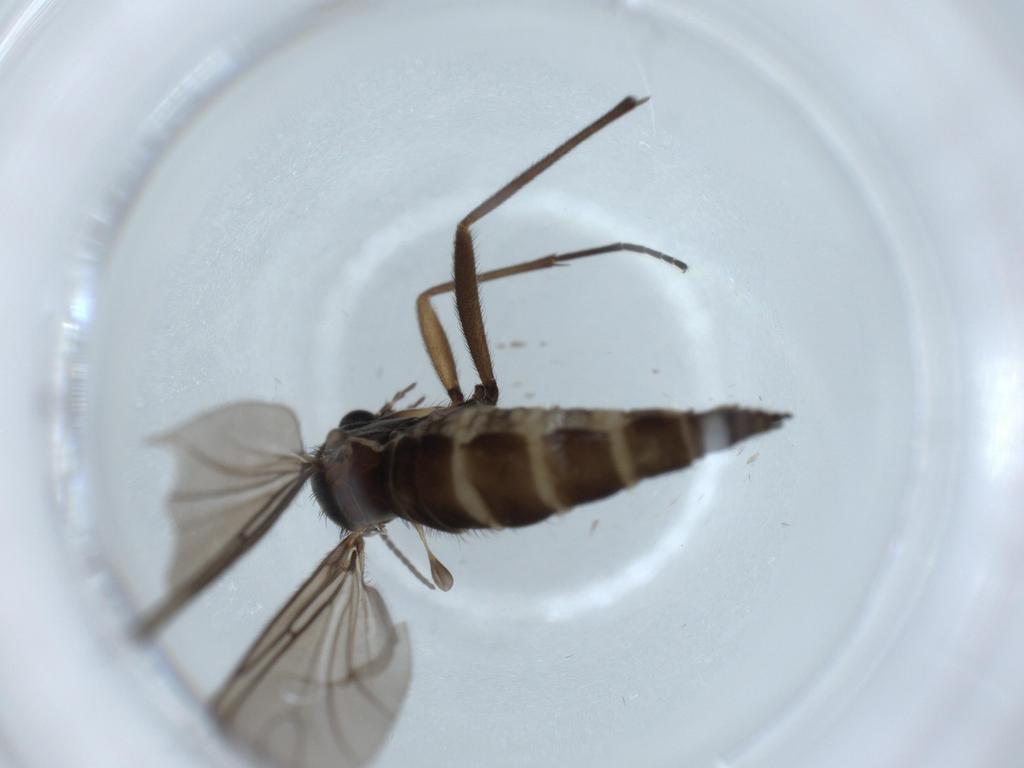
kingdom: Animalia
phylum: Arthropoda
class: Insecta
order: Diptera
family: Sciaridae
